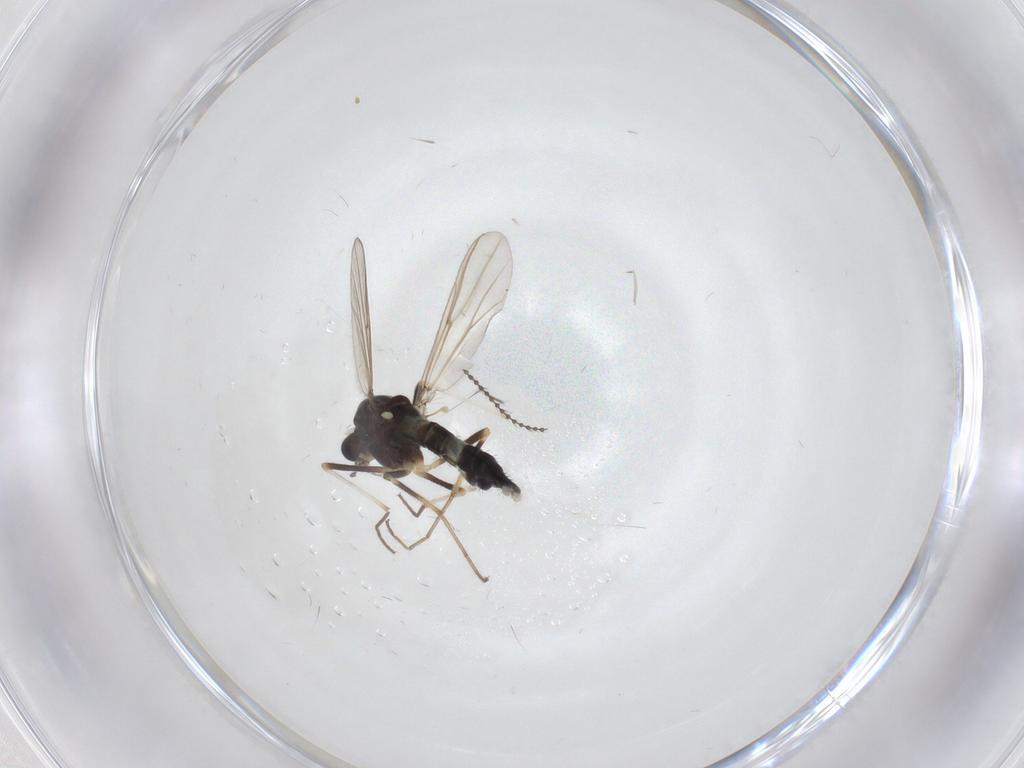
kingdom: Animalia
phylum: Arthropoda
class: Insecta
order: Diptera
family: Chironomidae
